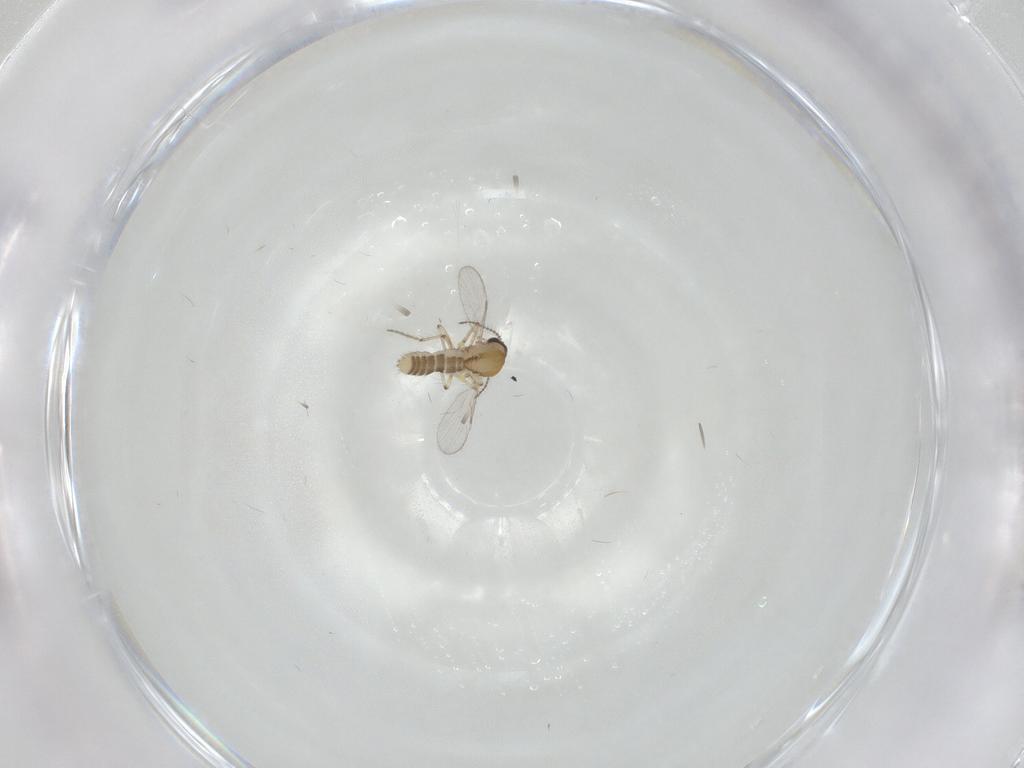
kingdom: Animalia
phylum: Arthropoda
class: Insecta
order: Diptera
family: Ceratopogonidae
